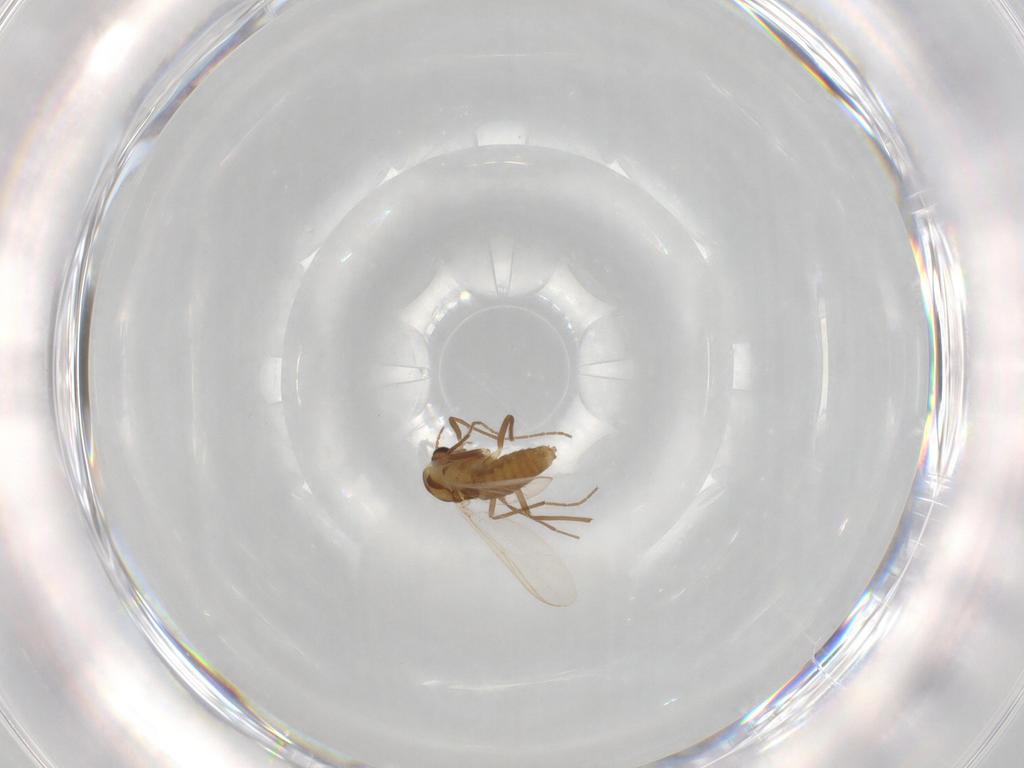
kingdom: Animalia
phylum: Arthropoda
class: Insecta
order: Diptera
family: Chironomidae
